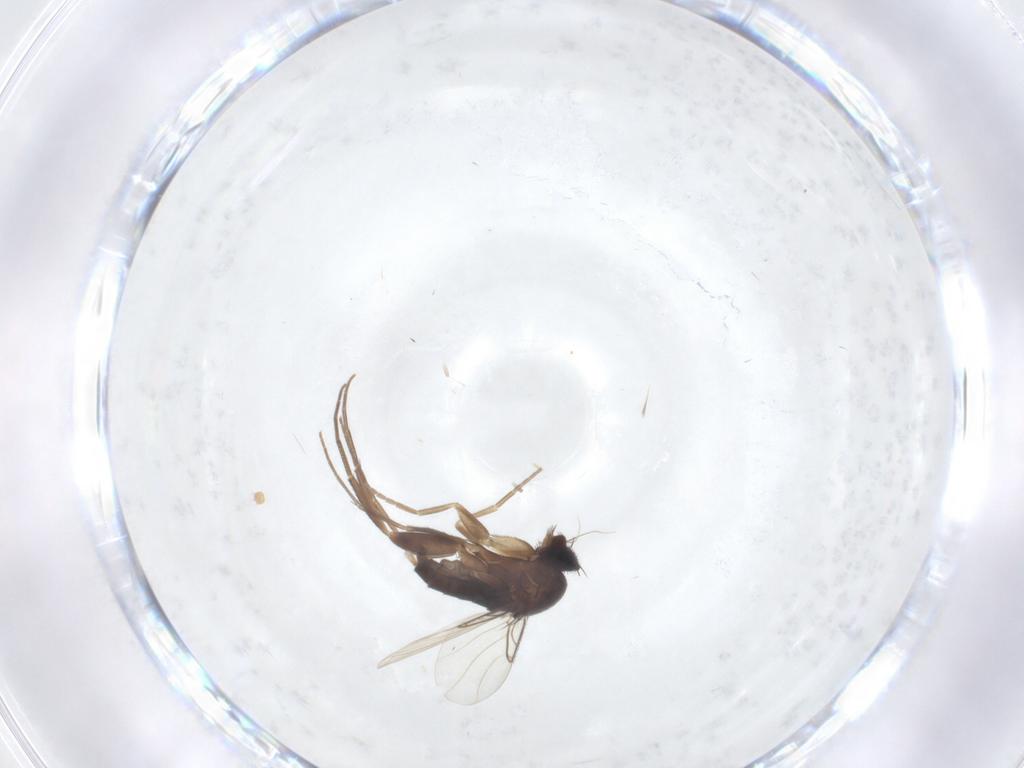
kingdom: Animalia
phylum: Arthropoda
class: Insecta
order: Diptera
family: Phoridae
